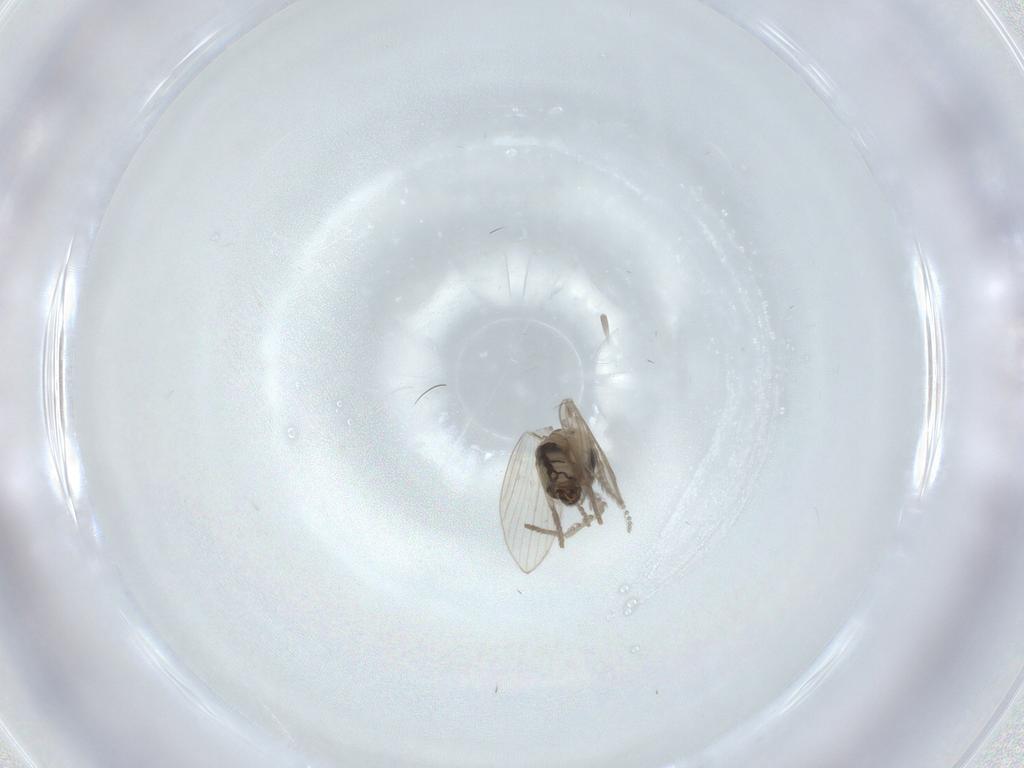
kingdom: Animalia
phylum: Arthropoda
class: Insecta
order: Diptera
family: Psychodidae
